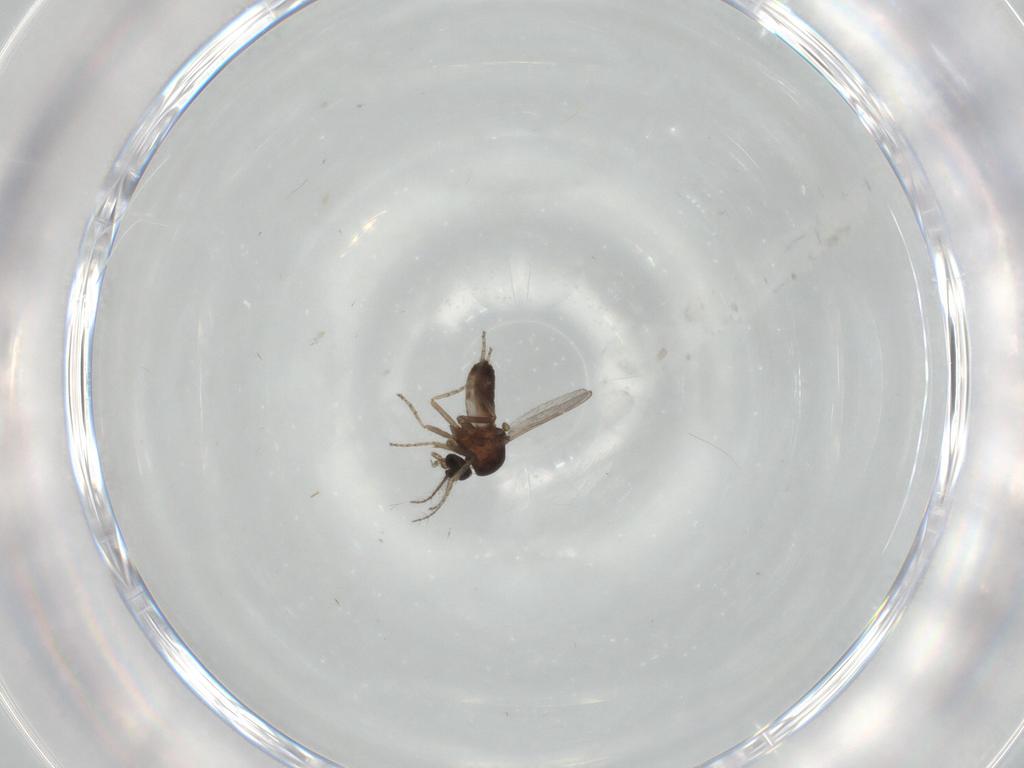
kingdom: Animalia
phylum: Arthropoda
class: Insecta
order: Diptera
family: Ceratopogonidae
